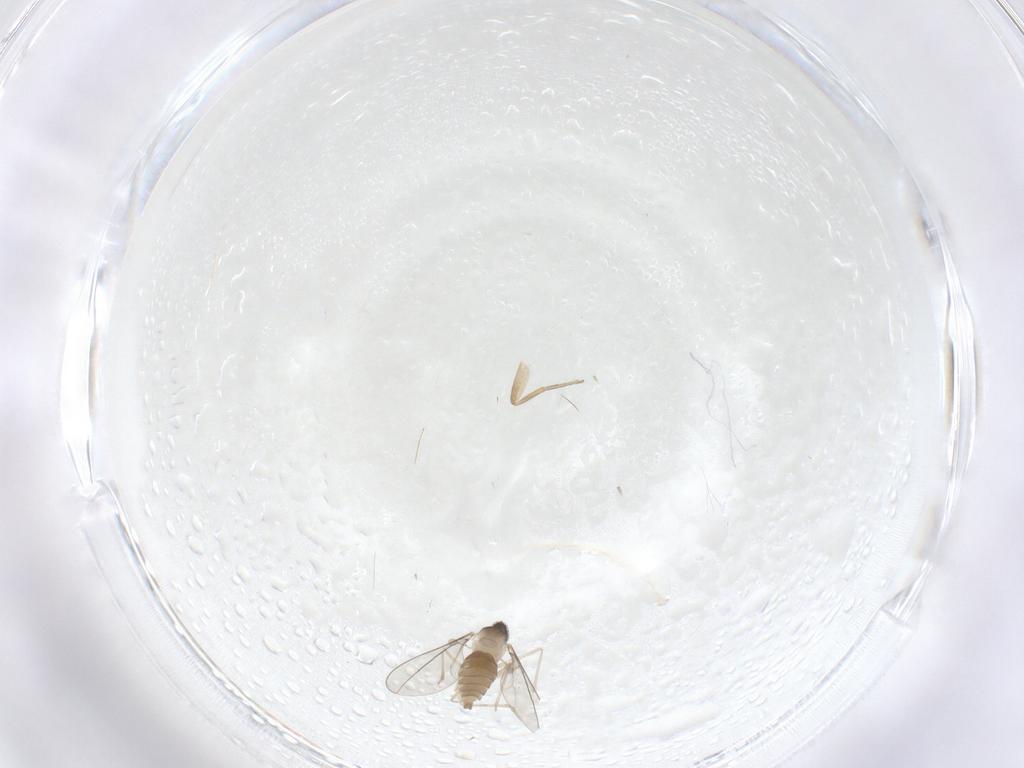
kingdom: Animalia
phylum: Arthropoda
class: Insecta
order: Diptera
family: Cecidomyiidae
